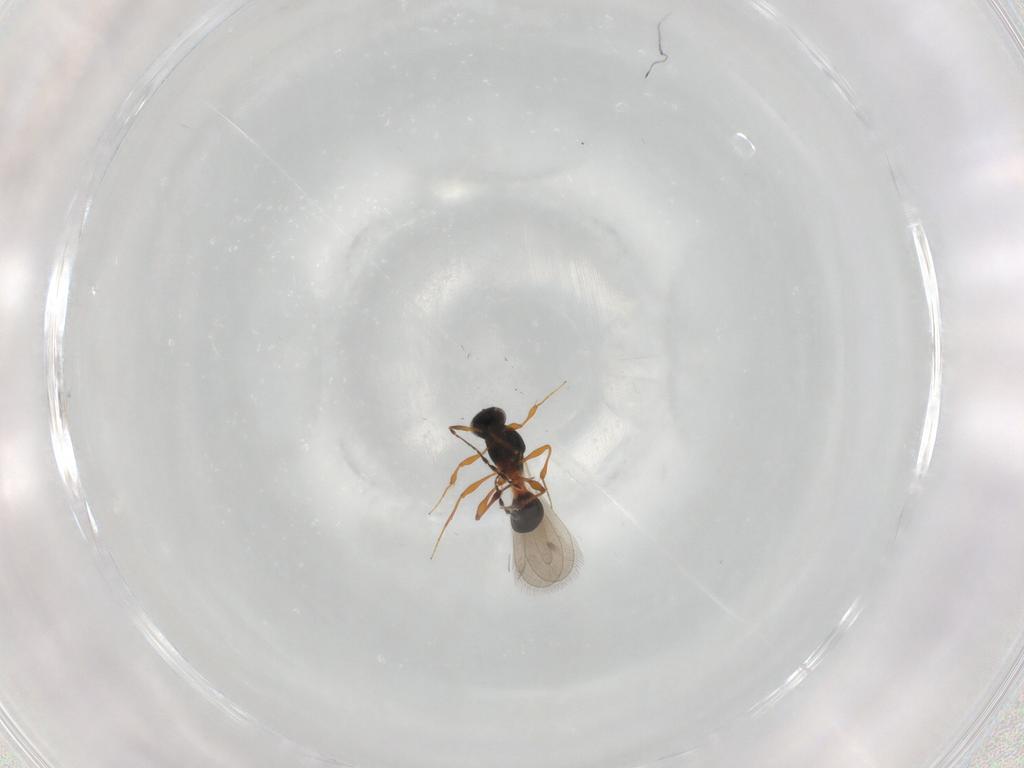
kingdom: Animalia
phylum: Arthropoda
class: Insecta
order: Hymenoptera
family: Platygastridae
